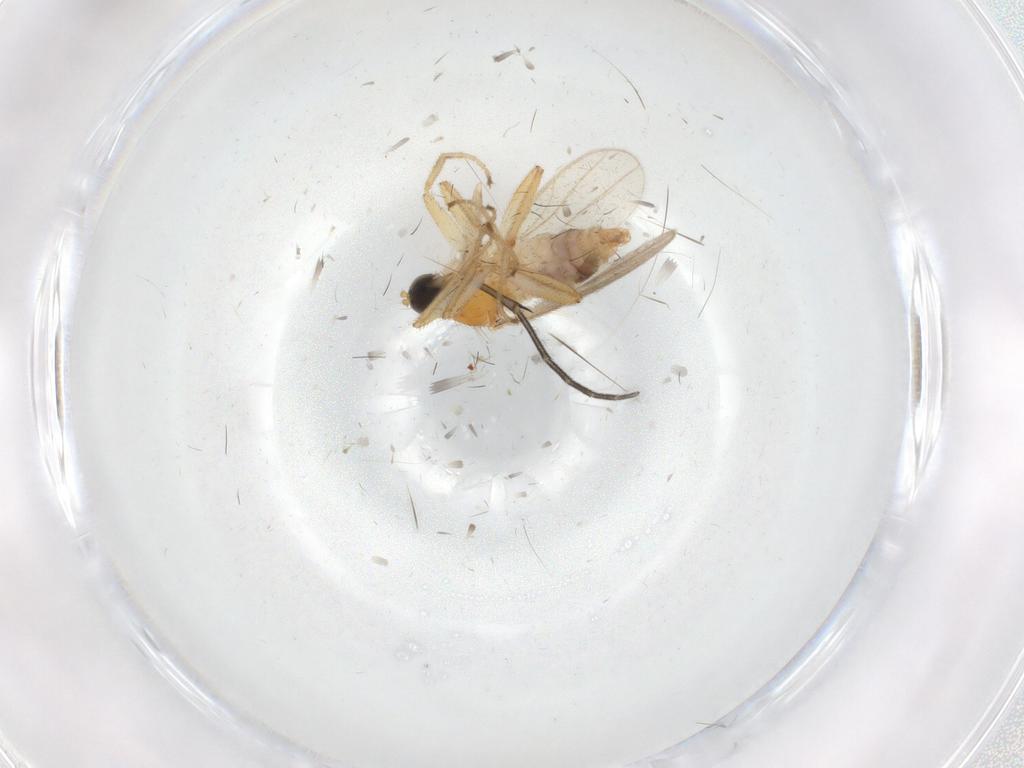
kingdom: Animalia
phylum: Arthropoda
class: Insecta
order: Diptera
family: Hybotidae
